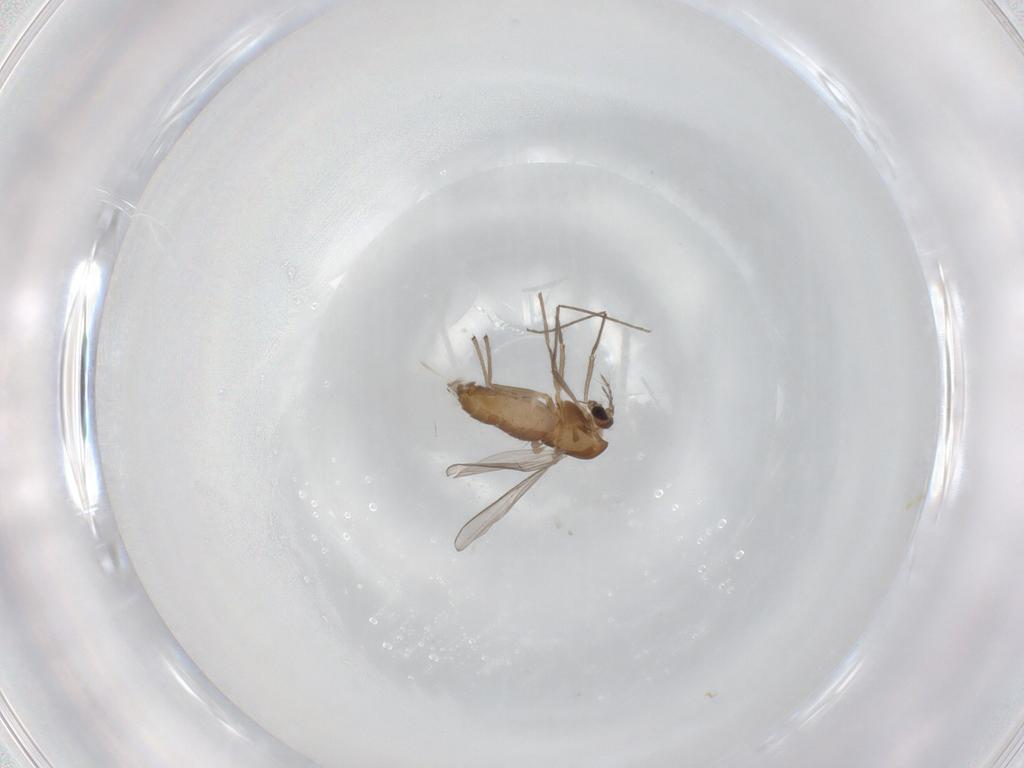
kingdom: Animalia
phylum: Arthropoda
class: Insecta
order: Diptera
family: Chironomidae
